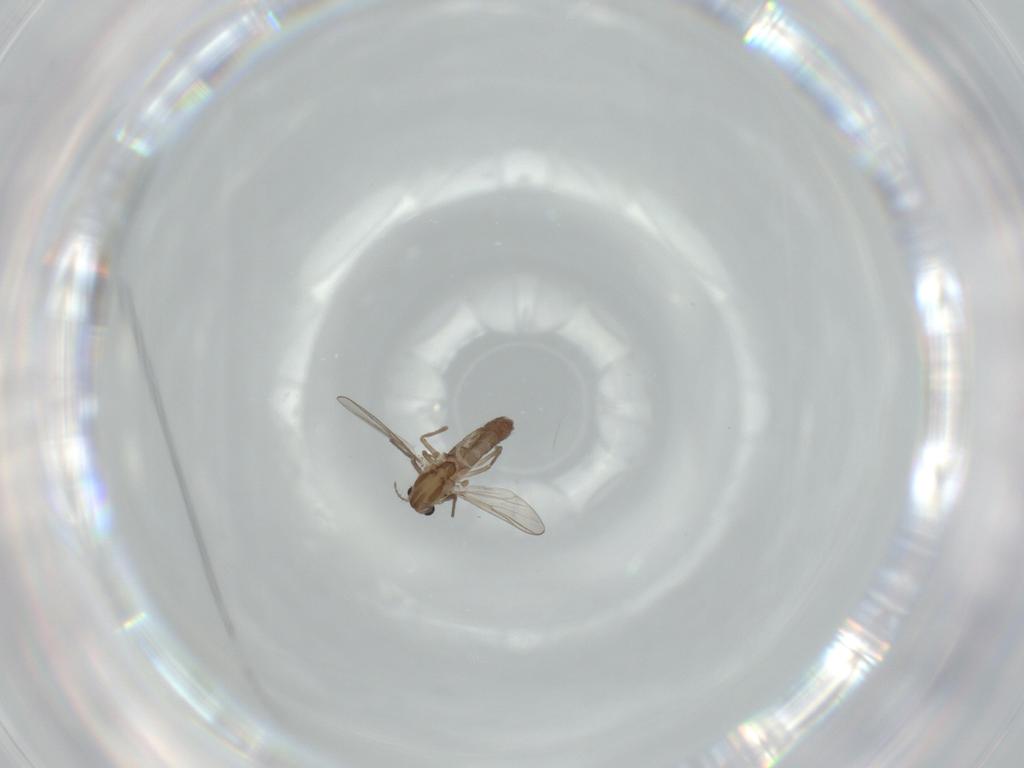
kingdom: Animalia
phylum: Arthropoda
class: Insecta
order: Diptera
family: Chironomidae
